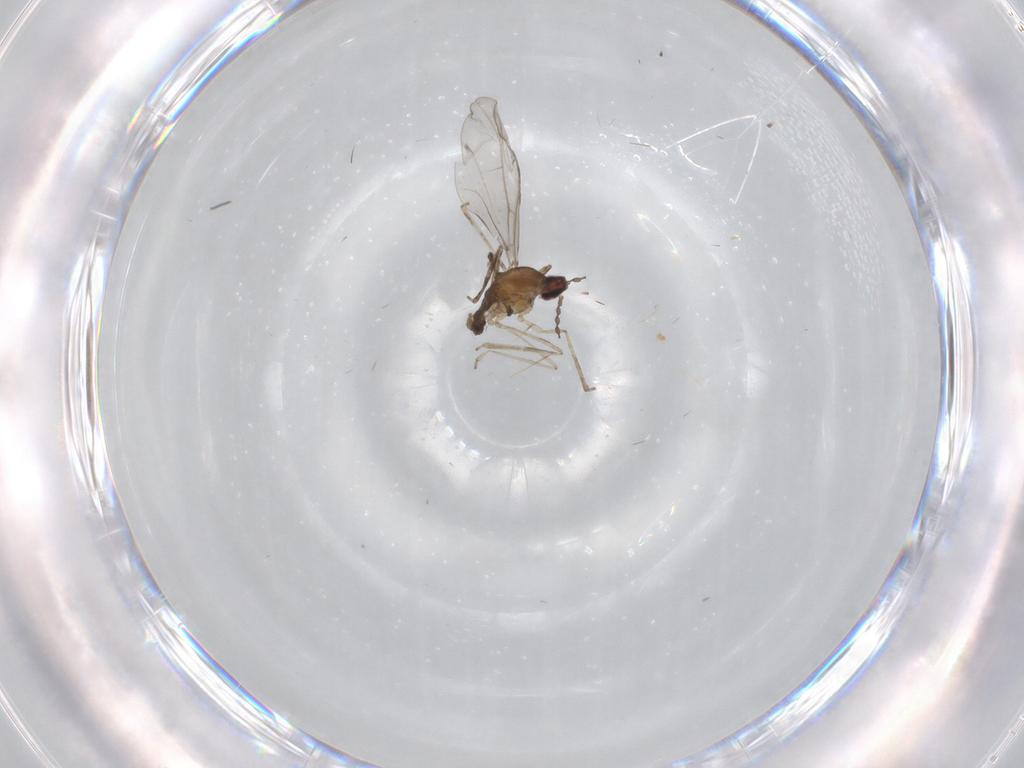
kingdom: Animalia
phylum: Arthropoda
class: Insecta
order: Diptera
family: Cecidomyiidae
